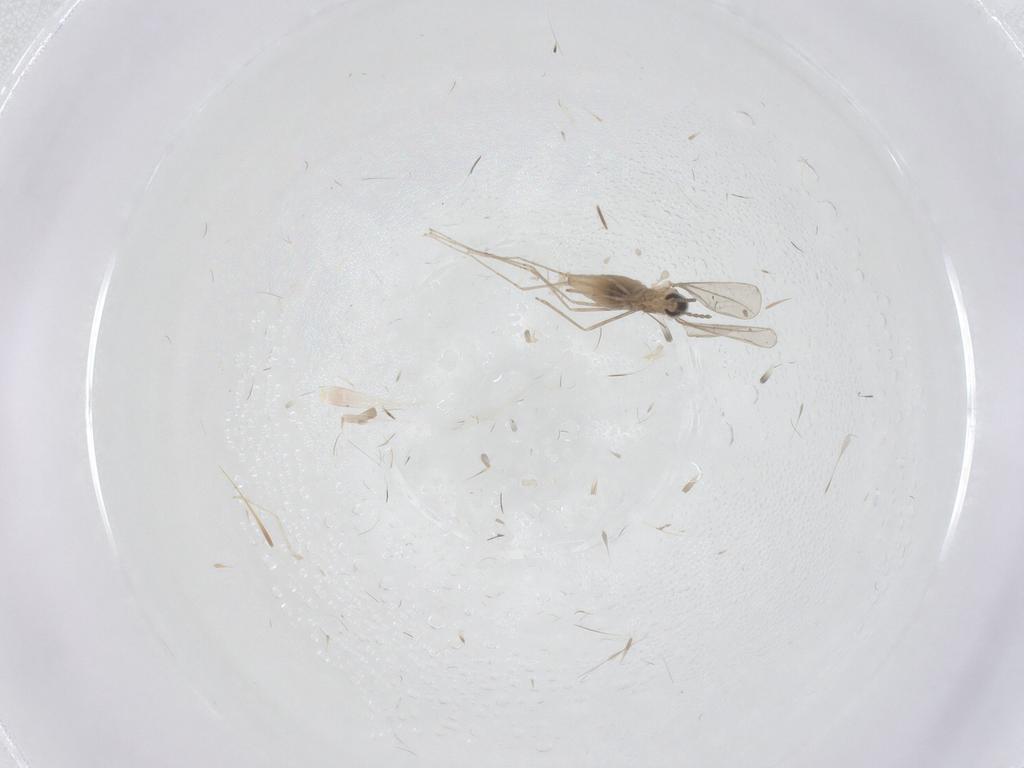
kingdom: Animalia
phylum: Arthropoda
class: Insecta
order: Diptera
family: Cecidomyiidae
